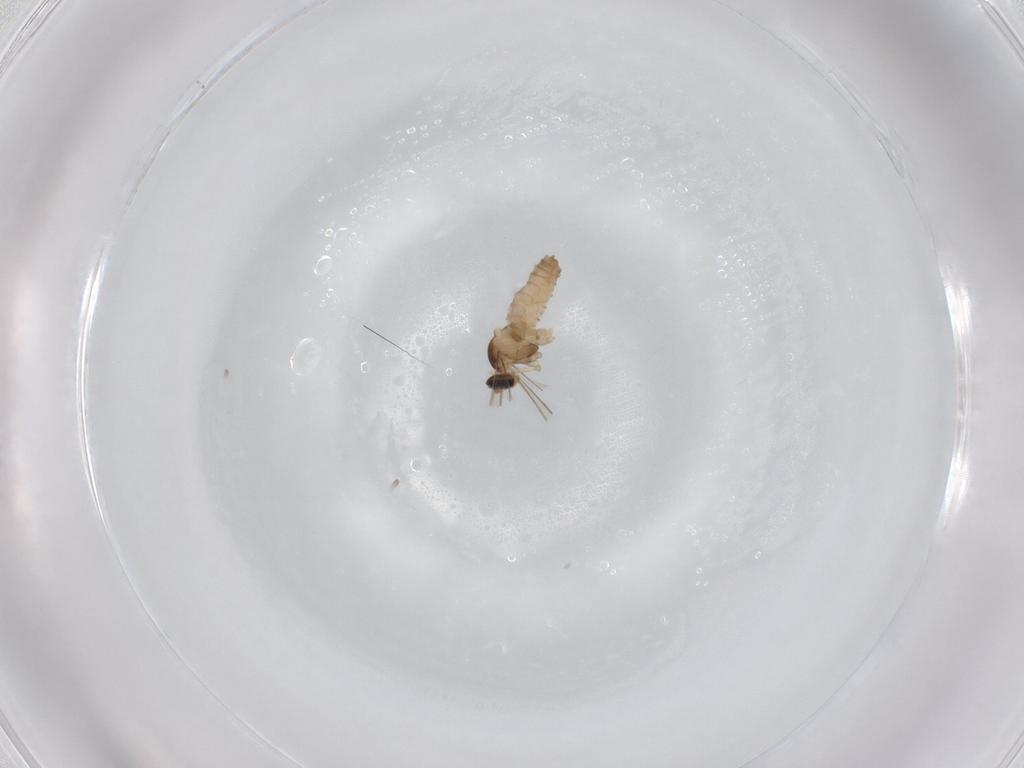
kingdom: Animalia
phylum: Arthropoda
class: Insecta
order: Diptera
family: Cecidomyiidae
